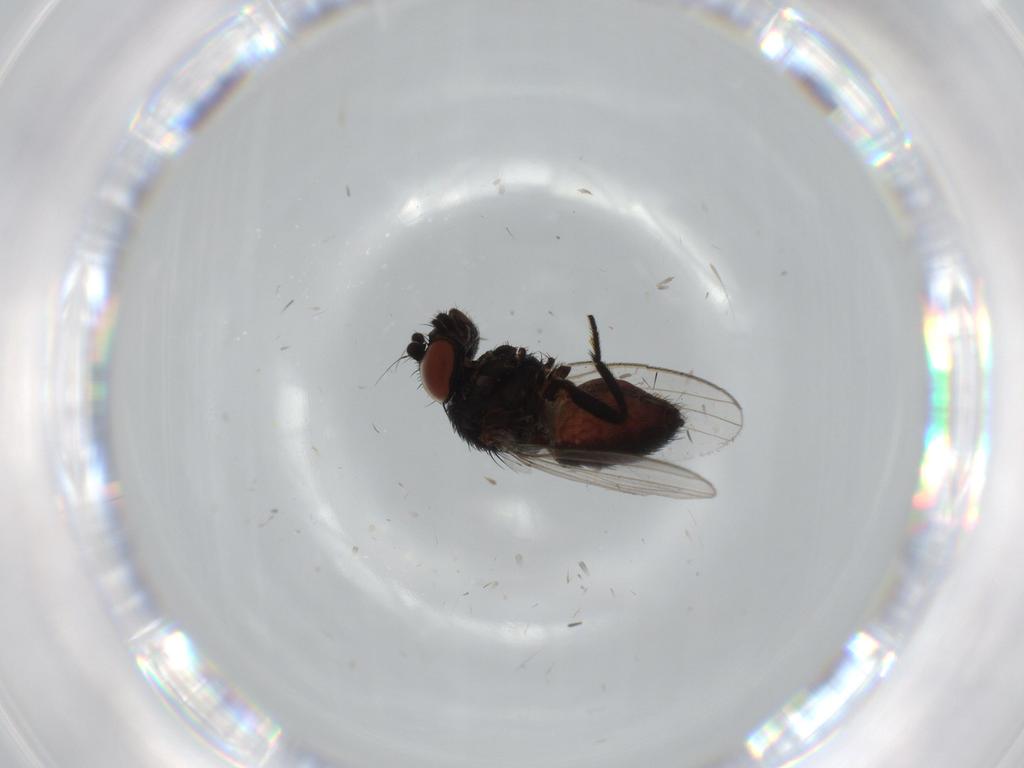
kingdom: Animalia
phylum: Arthropoda
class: Insecta
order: Diptera
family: Milichiidae
